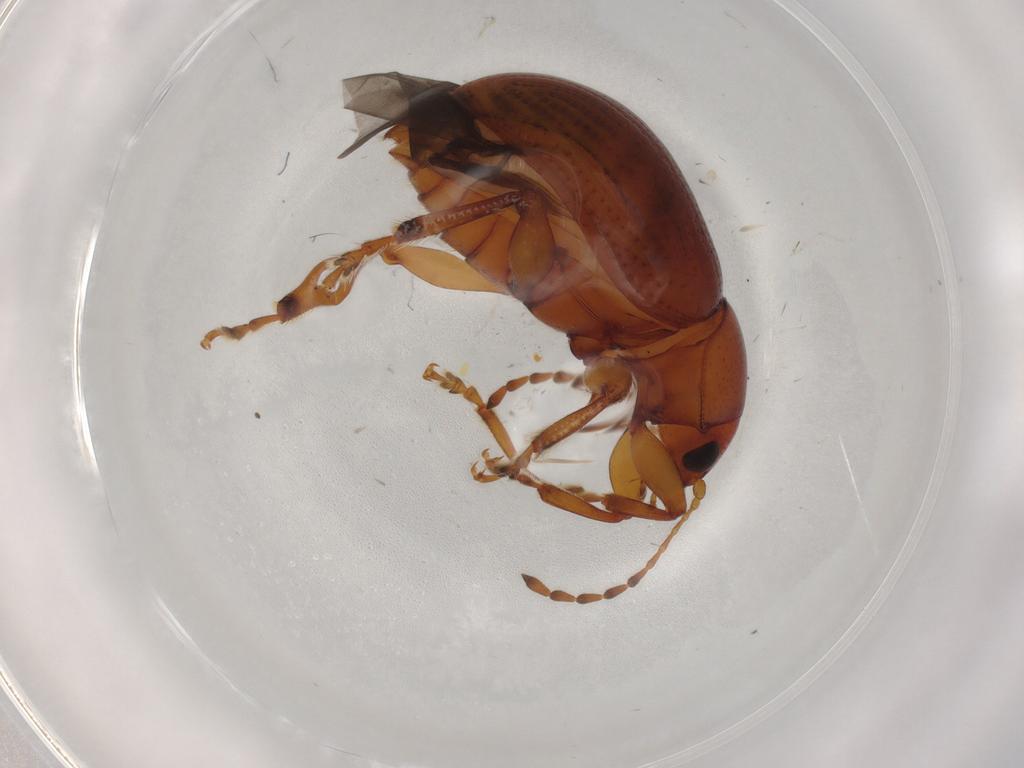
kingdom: Animalia
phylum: Arthropoda
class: Insecta
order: Coleoptera
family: Chrysomelidae
